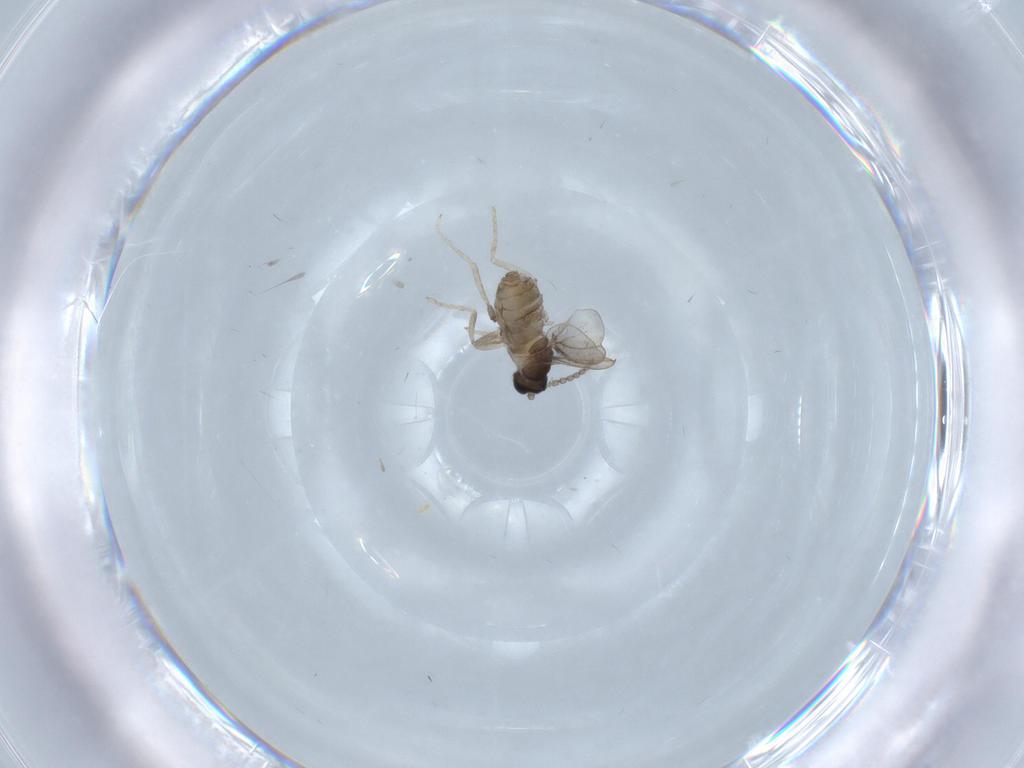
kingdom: Animalia
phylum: Arthropoda
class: Insecta
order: Diptera
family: Cecidomyiidae
